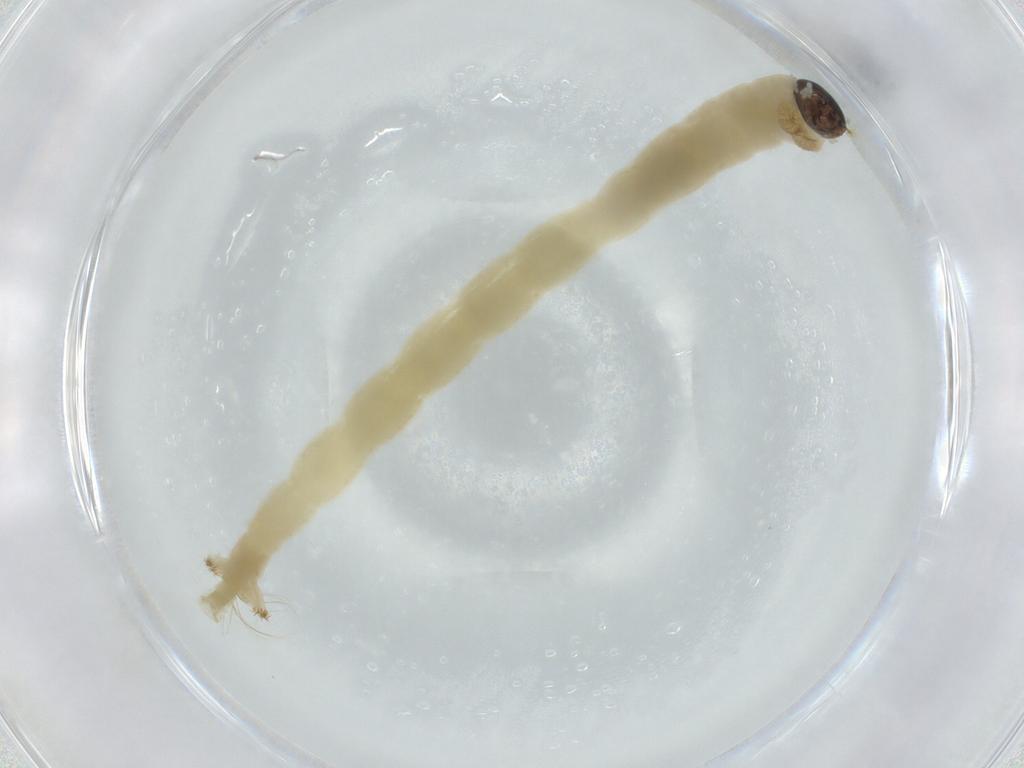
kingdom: Animalia
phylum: Arthropoda
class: Insecta
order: Diptera
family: Chironomidae
